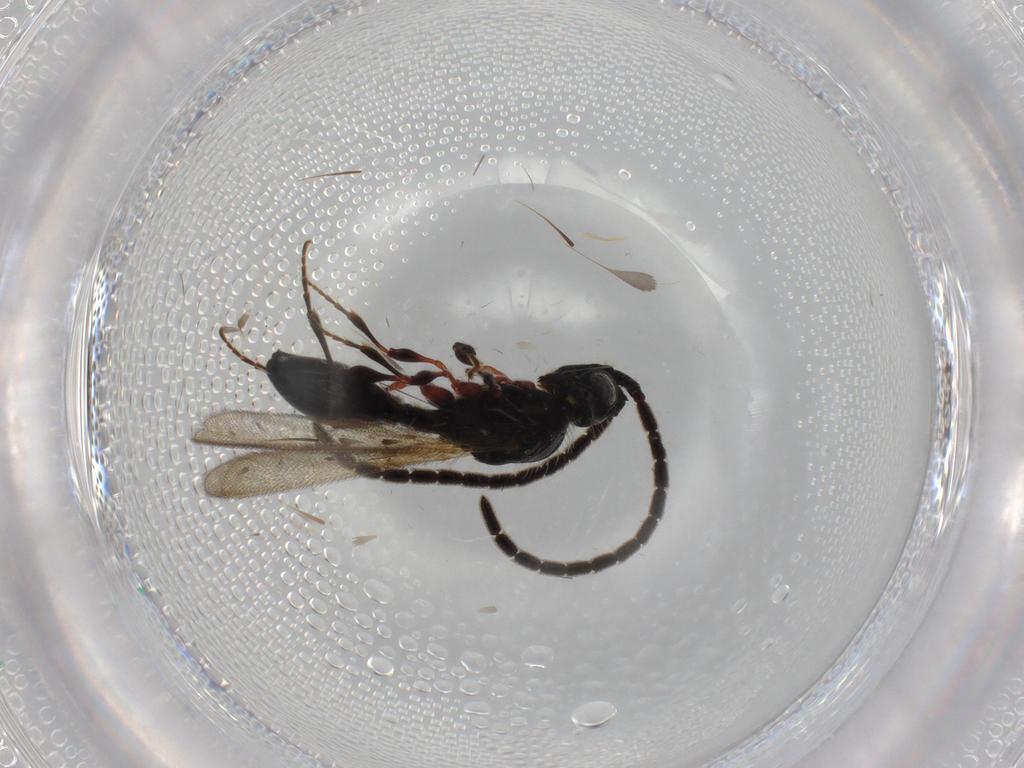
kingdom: Animalia
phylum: Arthropoda
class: Insecta
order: Hymenoptera
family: Diapriidae
